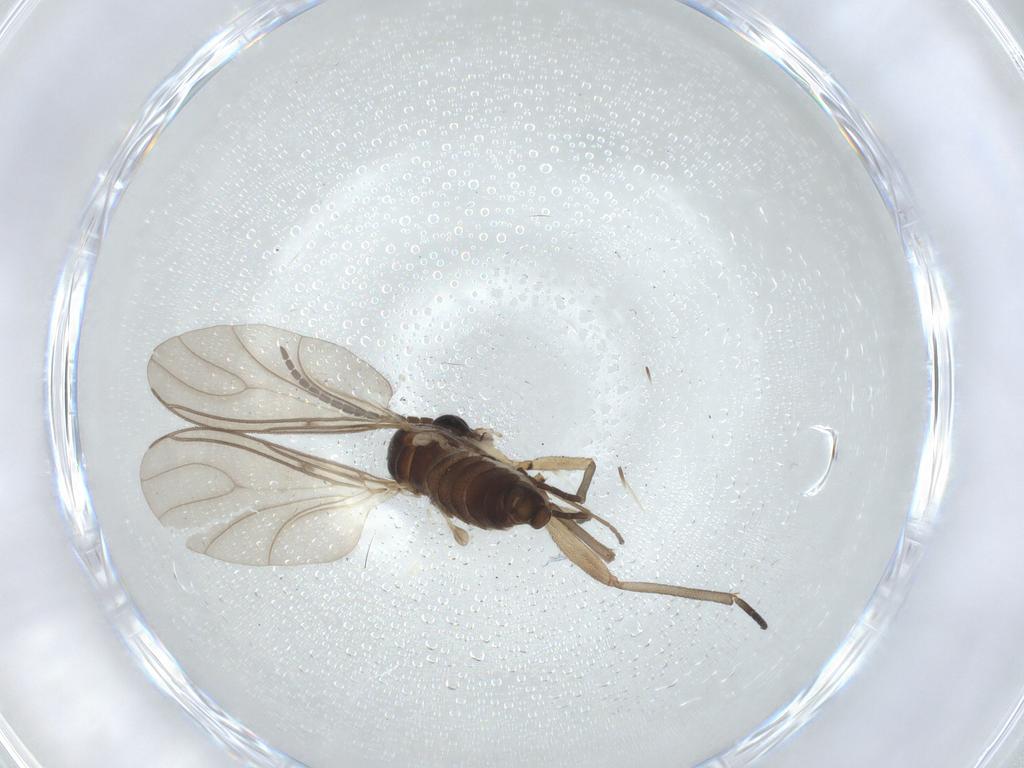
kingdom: Animalia
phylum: Arthropoda
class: Insecta
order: Diptera
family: Sciaridae
